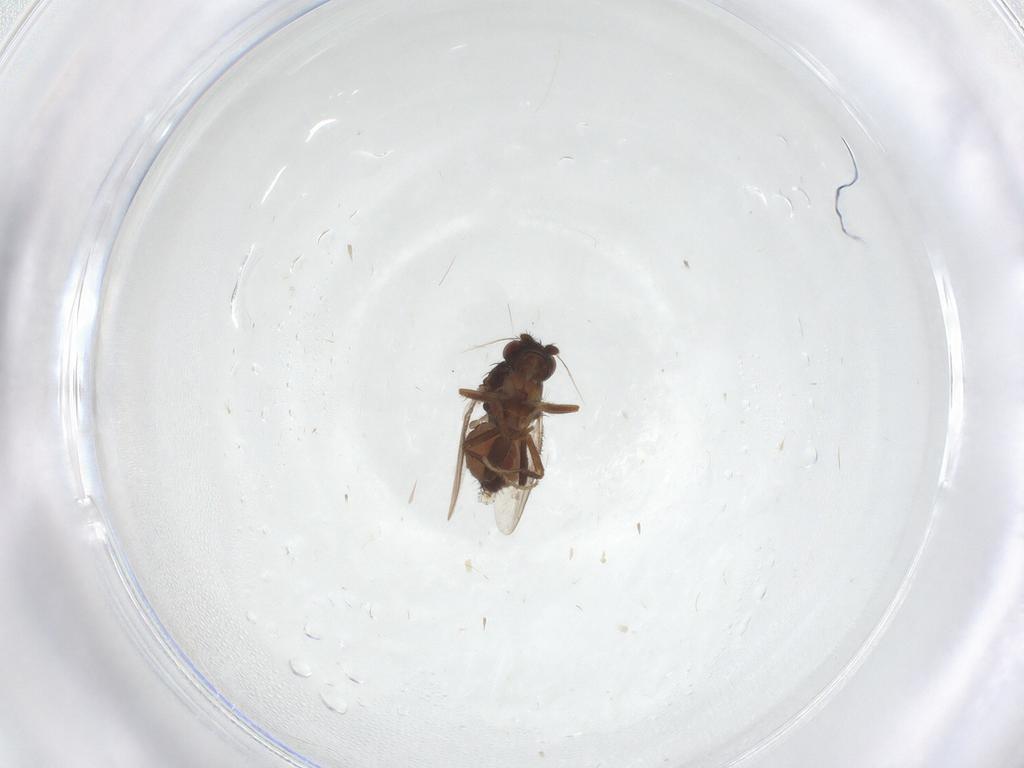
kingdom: Animalia
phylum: Arthropoda
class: Insecta
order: Diptera
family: Sphaeroceridae
